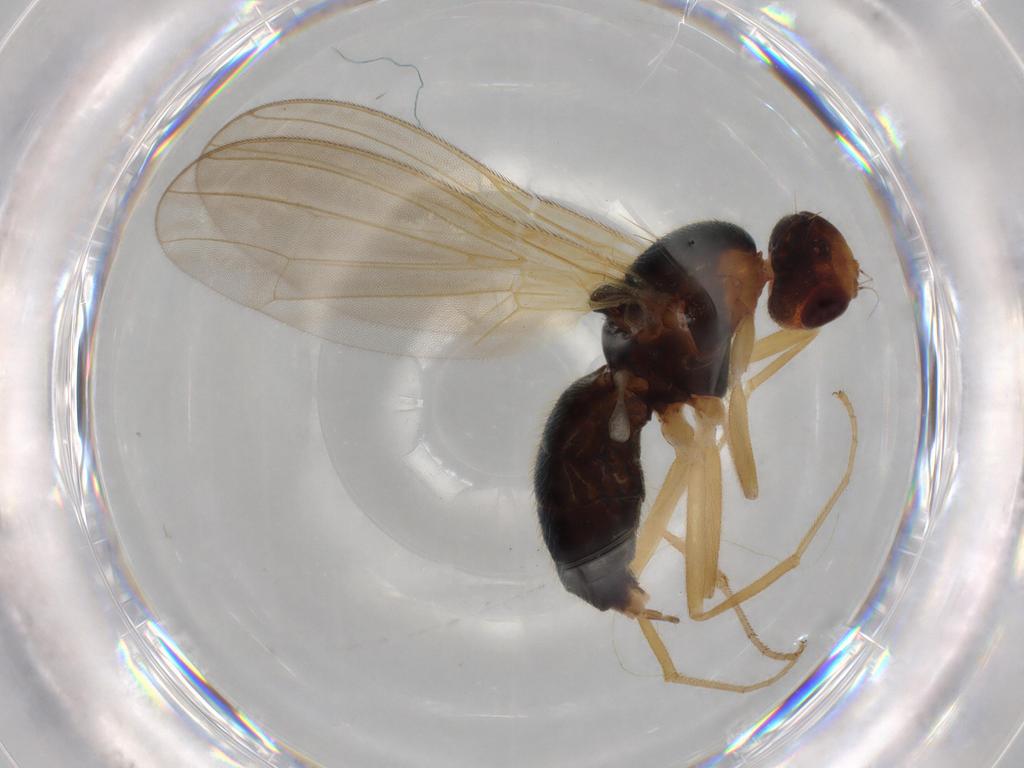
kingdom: Animalia
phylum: Arthropoda
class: Insecta
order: Diptera
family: Psilidae
